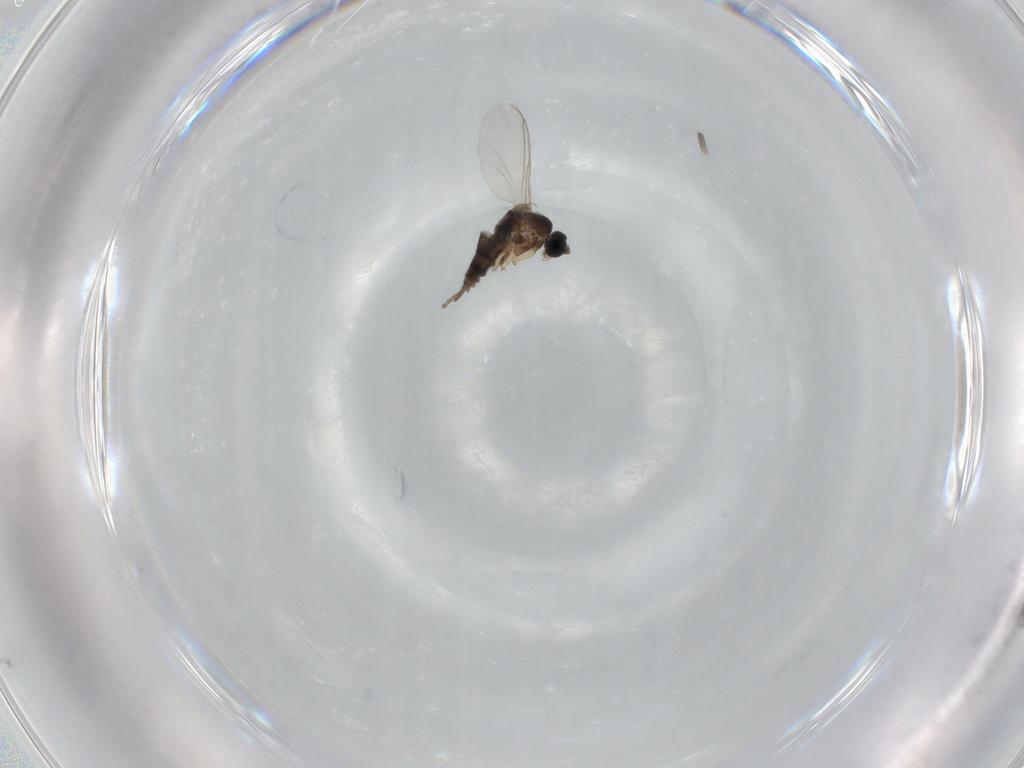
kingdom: Animalia
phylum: Arthropoda
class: Insecta
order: Diptera
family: Sciaridae
